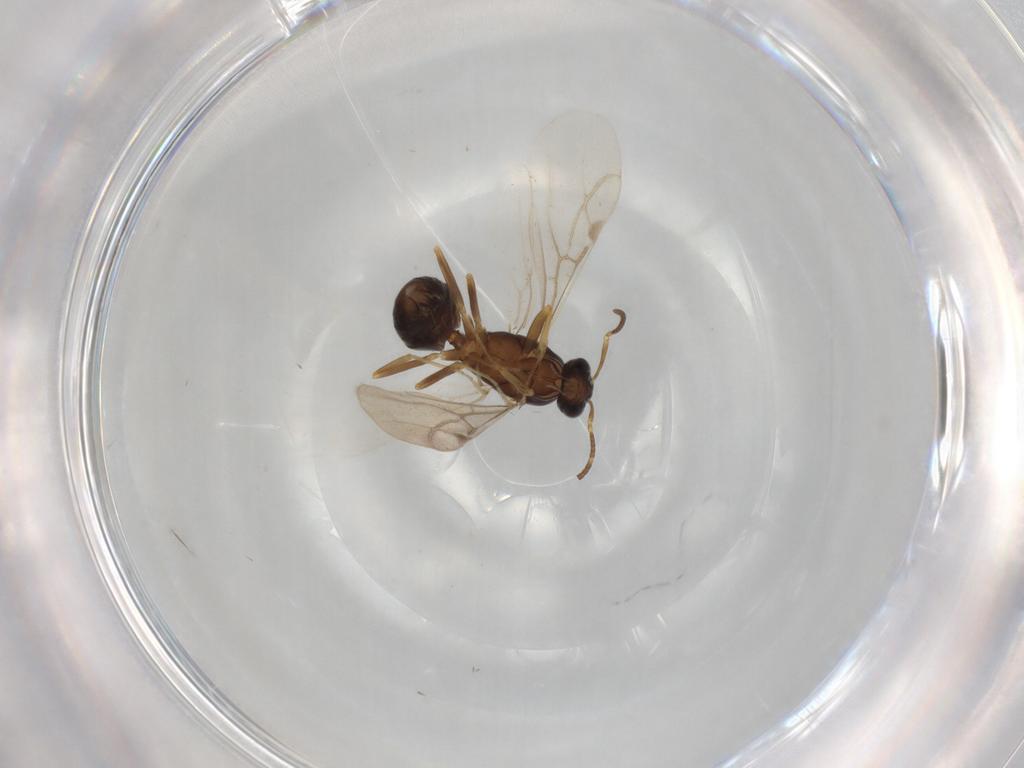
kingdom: Animalia
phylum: Arthropoda
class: Insecta
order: Hymenoptera
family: Formicidae
